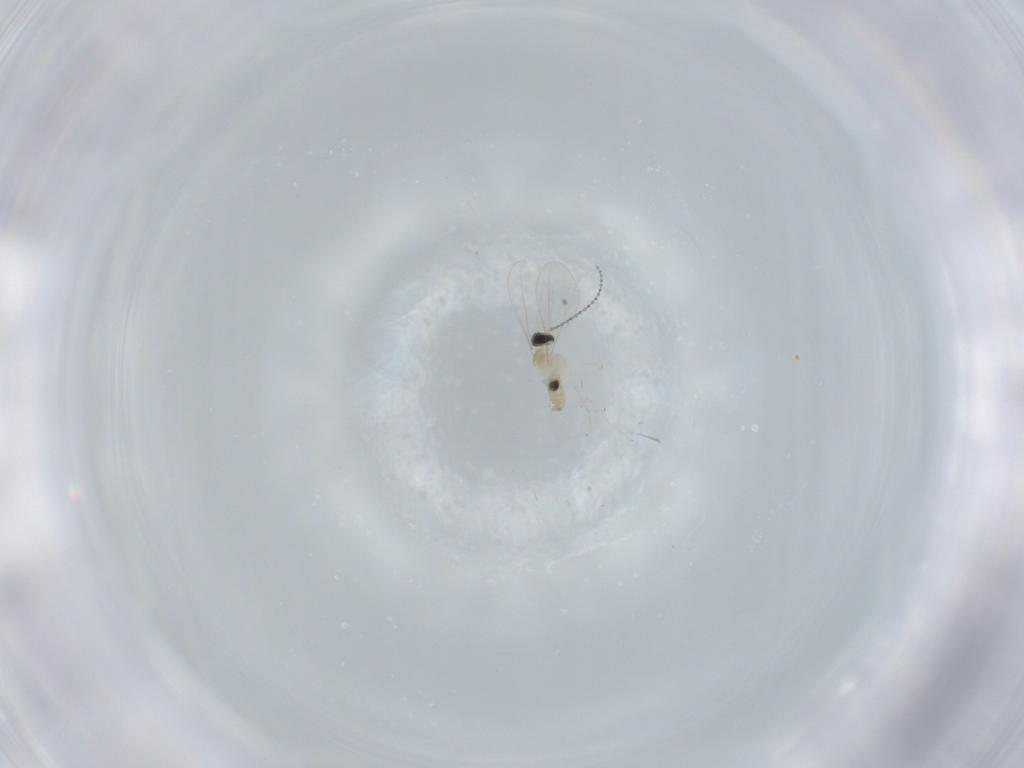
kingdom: Animalia
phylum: Arthropoda
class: Insecta
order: Diptera
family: Cecidomyiidae
